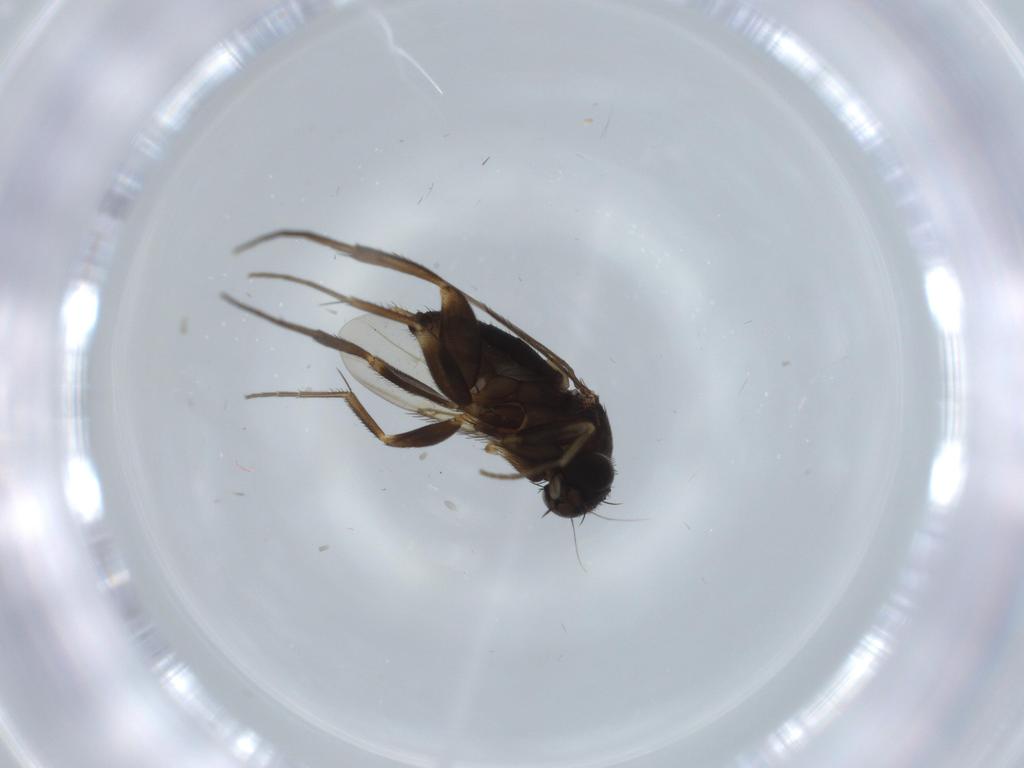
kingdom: Animalia
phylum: Arthropoda
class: Insecta
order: Diptera
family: Phoridae
